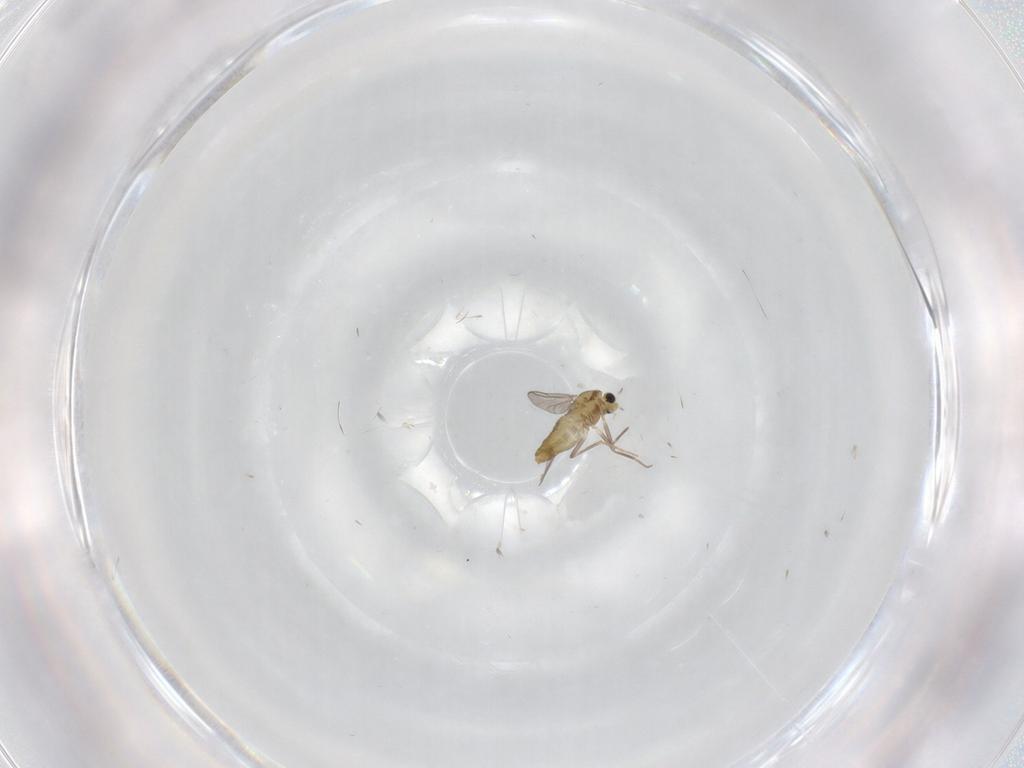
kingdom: Animalia
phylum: Arthropoda
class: Insecta
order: Diptera
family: Chironomidae
